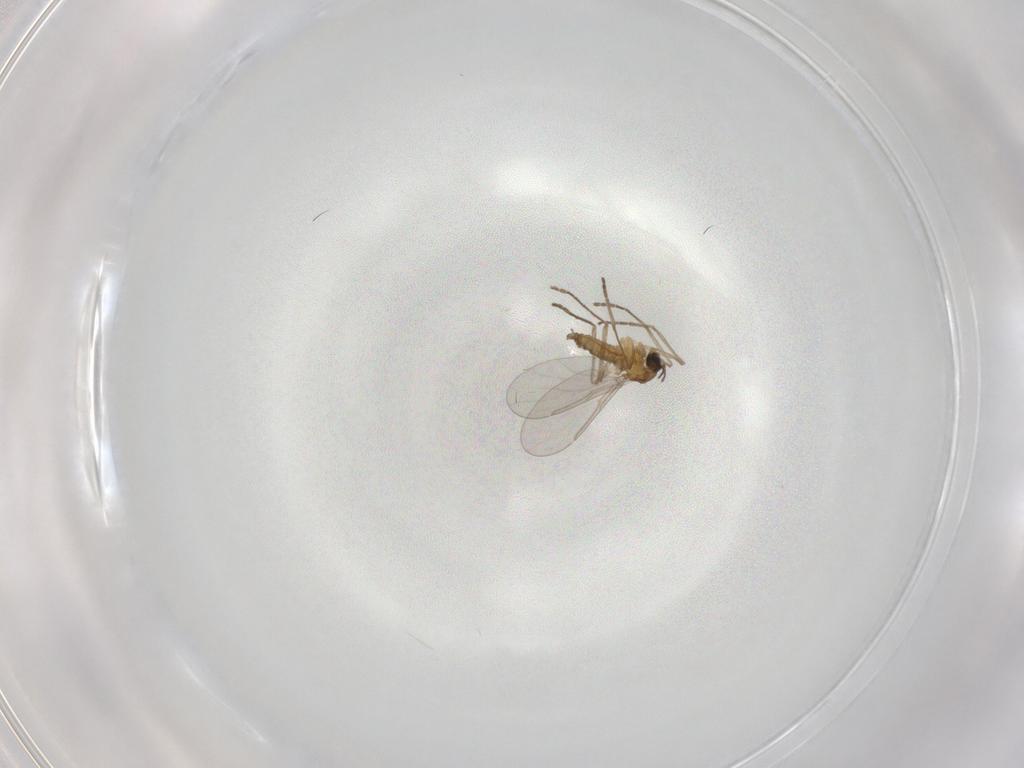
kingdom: Animalia
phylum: Arthropoda
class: Insecta
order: Diptera
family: Cecidomyiidae
